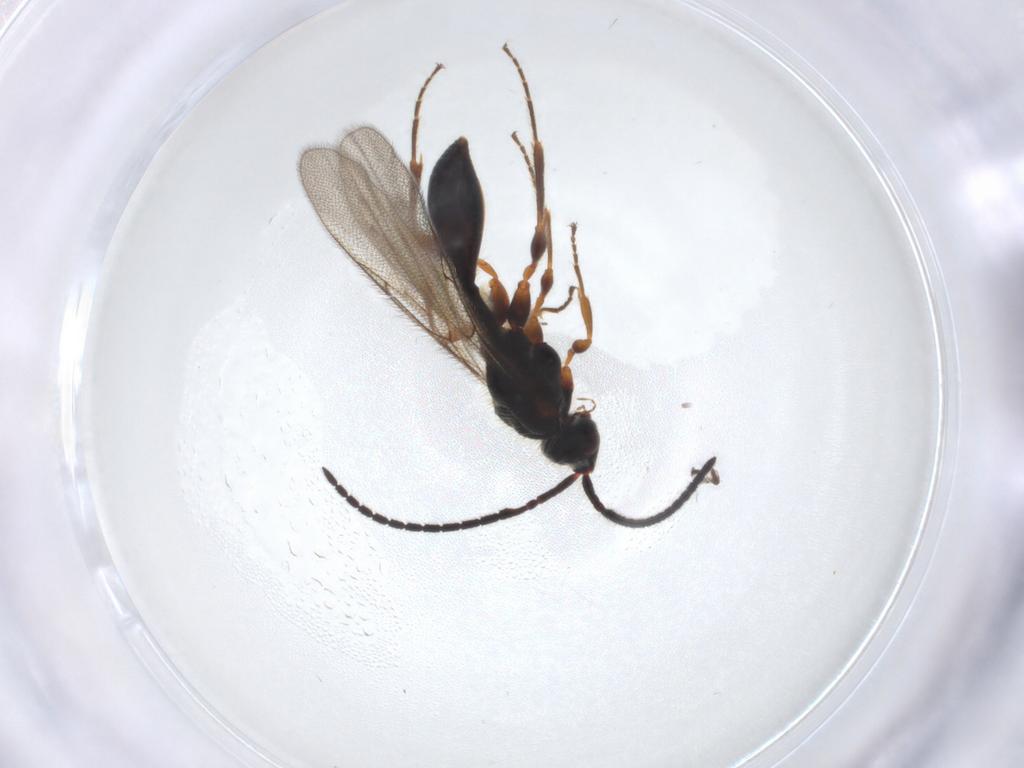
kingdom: Animalia
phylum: Arthropoda
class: Insecta
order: Hymenoptera
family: Ichneumonidae
